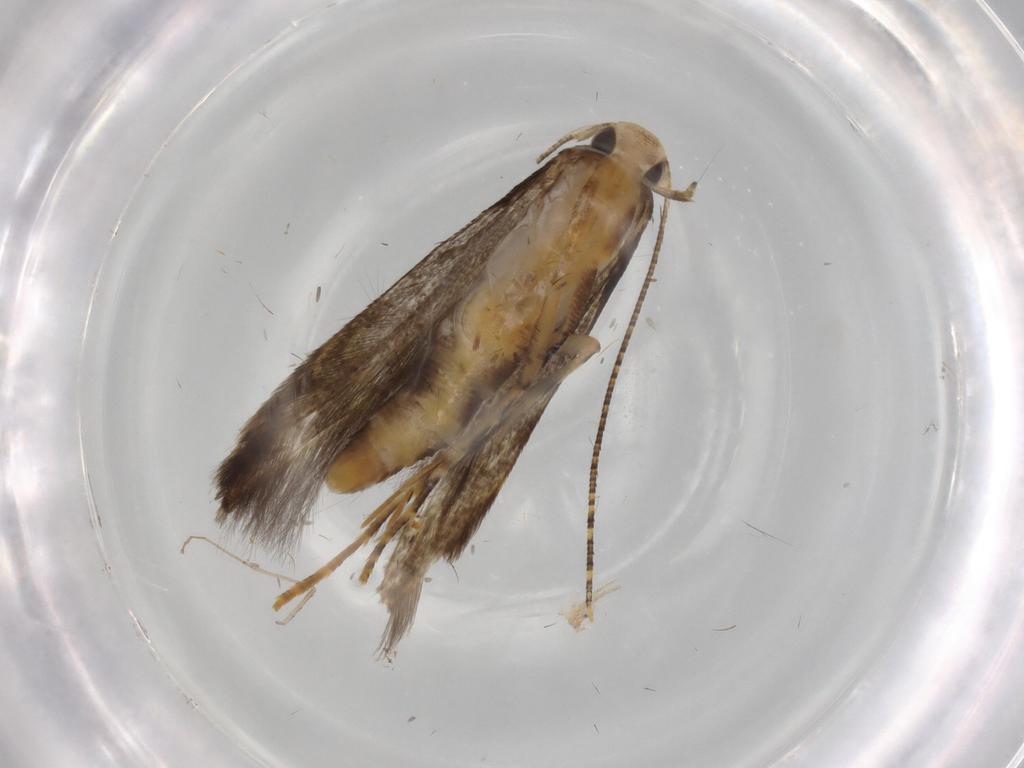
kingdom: Animalia
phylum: Arthropoda
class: Insecta
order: Lepidoptera
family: Gelechiidae
